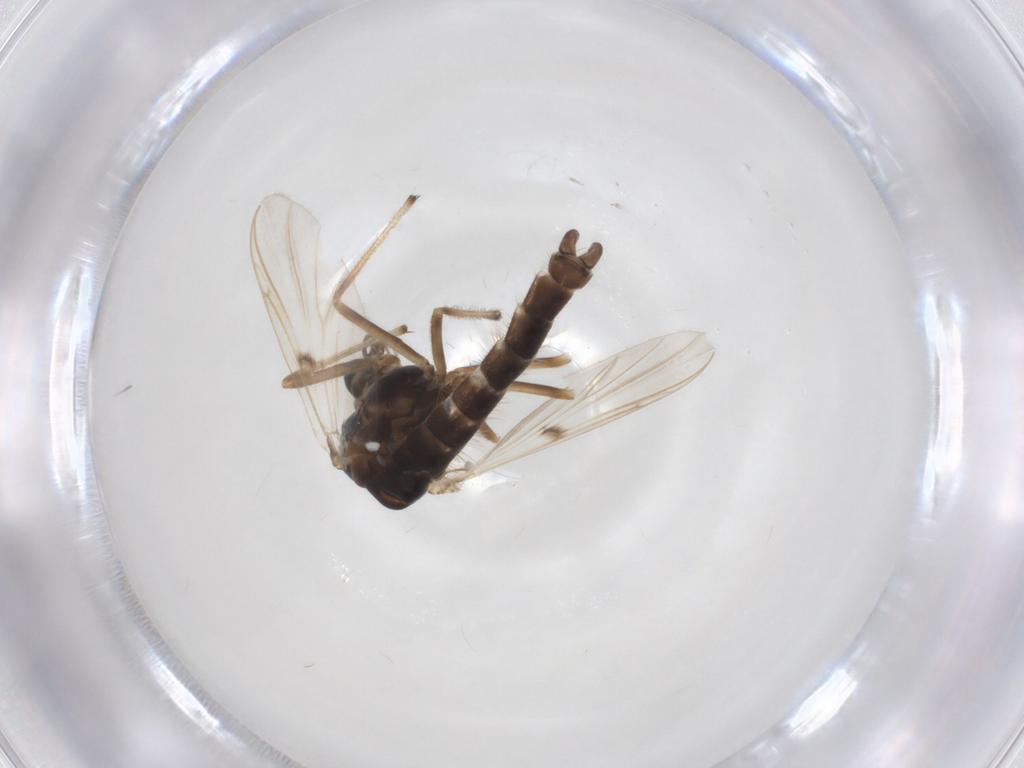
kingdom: Animalia
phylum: Arthropoda
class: Insecta
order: Diptera
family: Chironomidae
